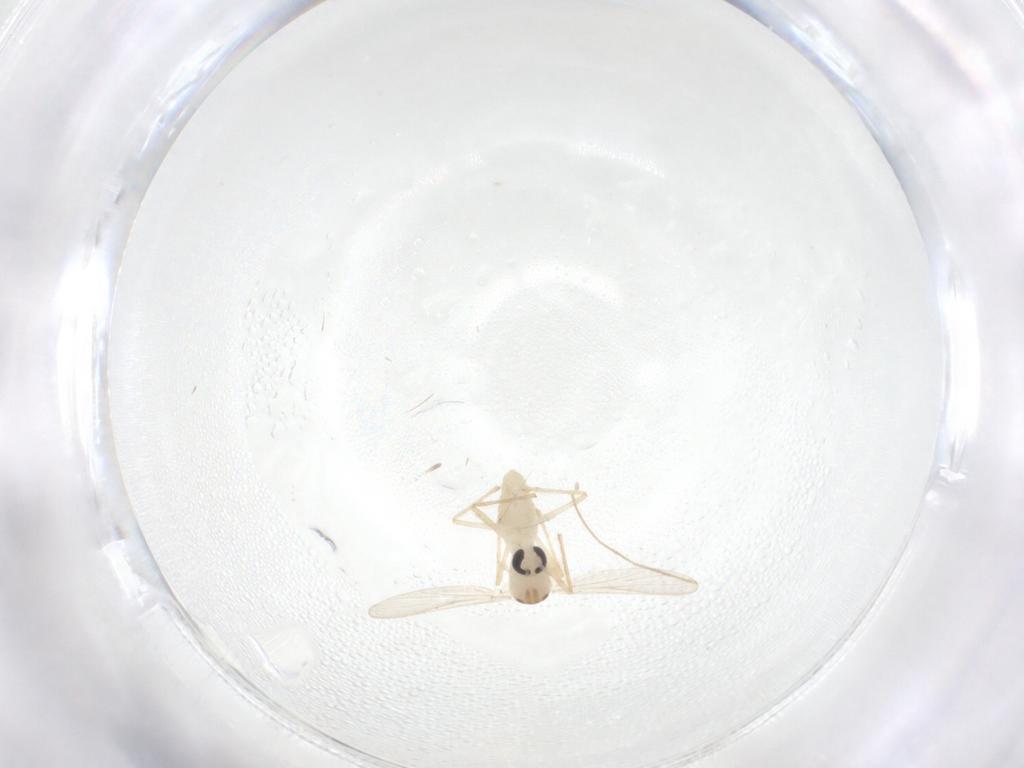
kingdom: Animalia
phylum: Arthropoda
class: Insecta
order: Diptera
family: Chironomidae
